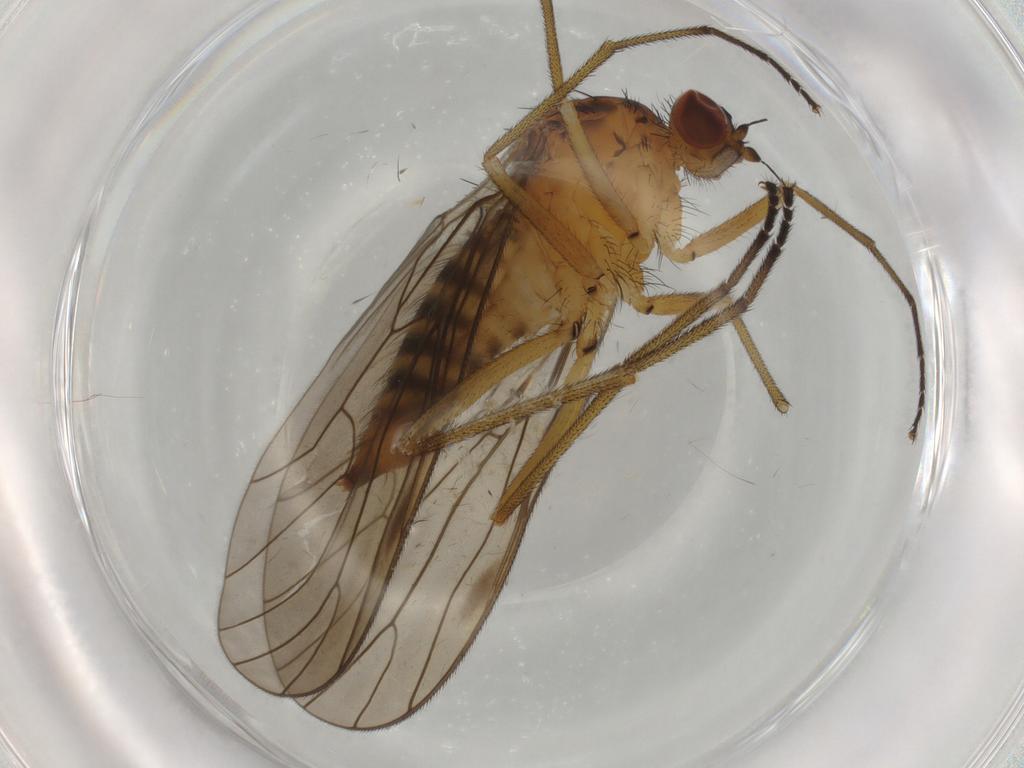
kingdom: Animalia
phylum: Arthropoda
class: Insecta
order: Diptera
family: Brachystomatidae
